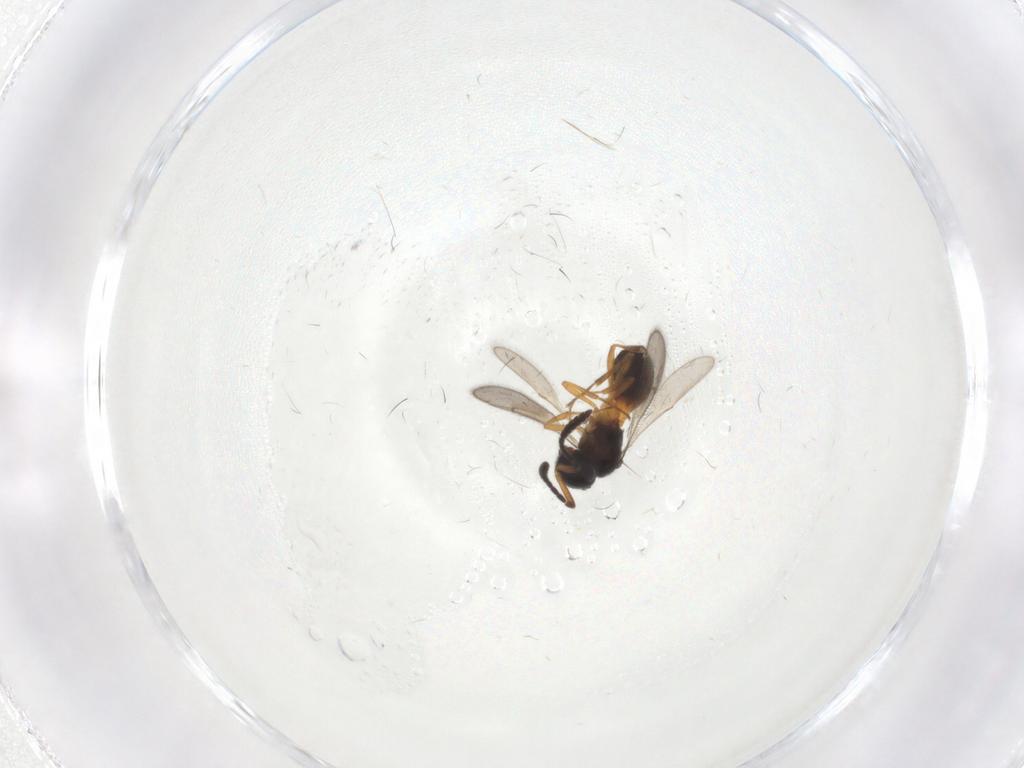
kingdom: Animalia
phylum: Arthropoda
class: Insecta
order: Hymenoptera
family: Scelionidae
